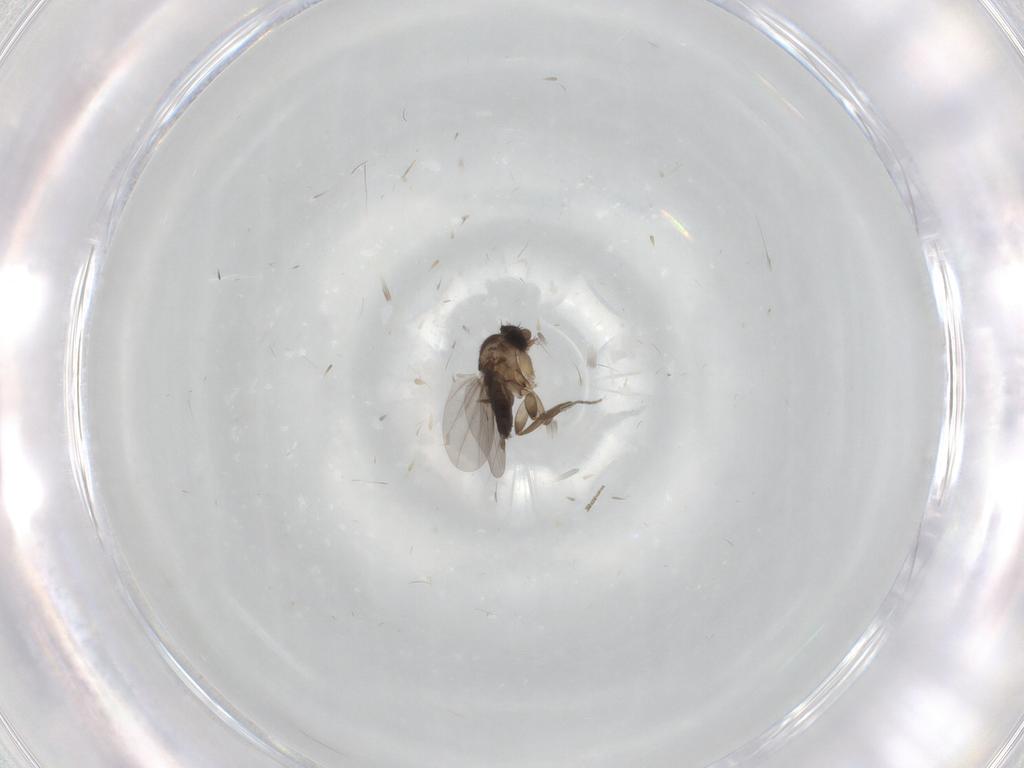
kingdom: Animalia
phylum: Arthropoda
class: Insecta
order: Diptera
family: Phoridae
